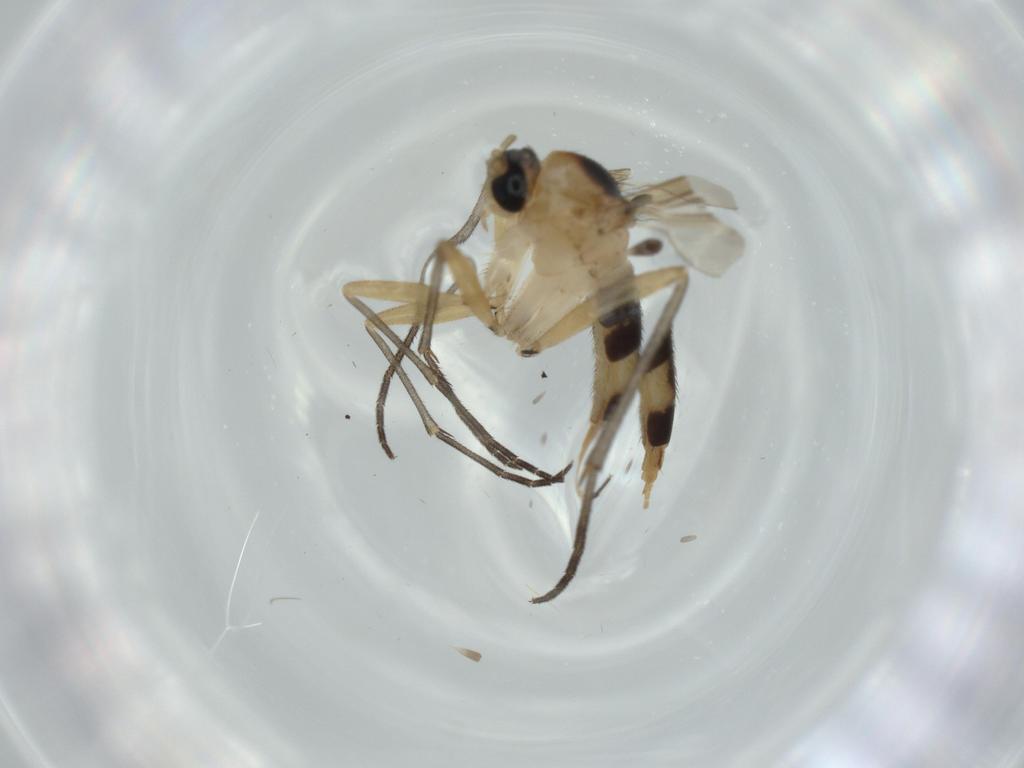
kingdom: Animalia
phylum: Arthropoda
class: Insecta
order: Diptera
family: Sciaridae
